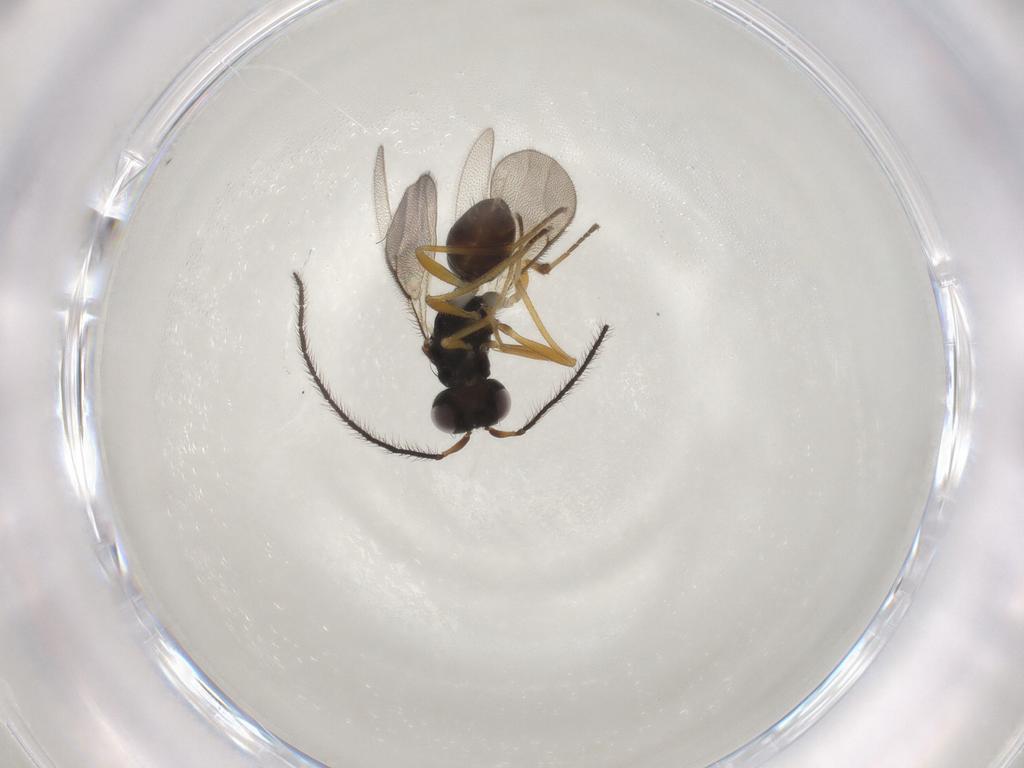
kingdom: Animalia
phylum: Arthropoda
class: Insecta
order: Hymenoptera
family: Diparidae
